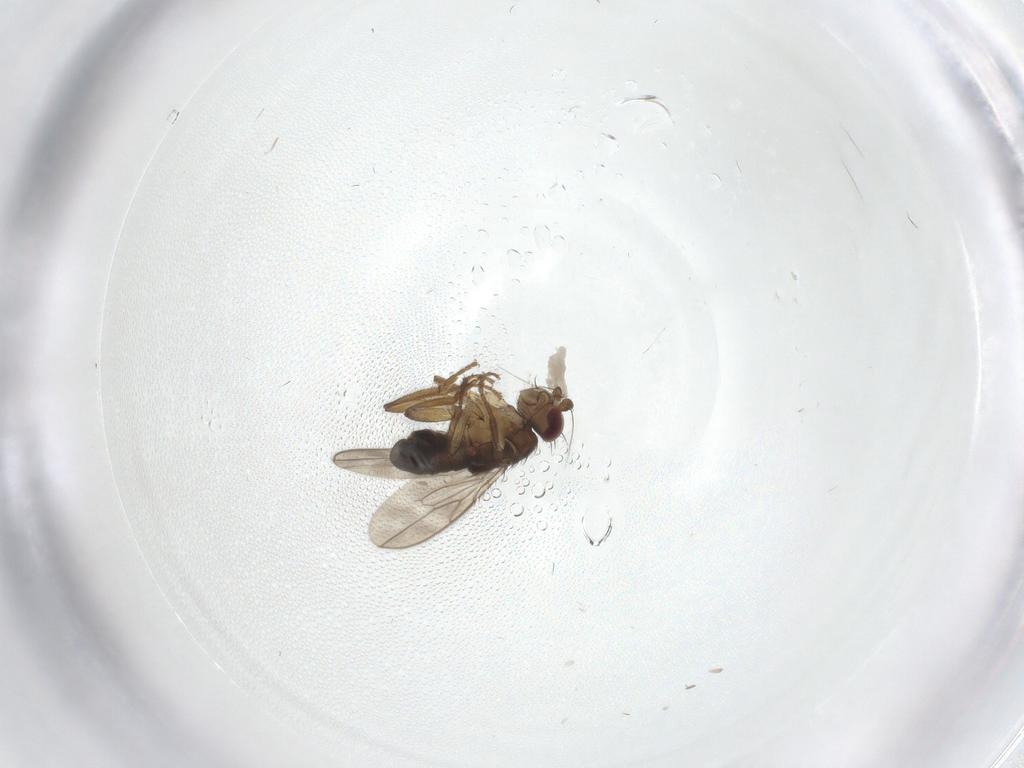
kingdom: Animalia
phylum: Arthropoda
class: Insecta
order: Diptera
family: Sphaeroceridae
